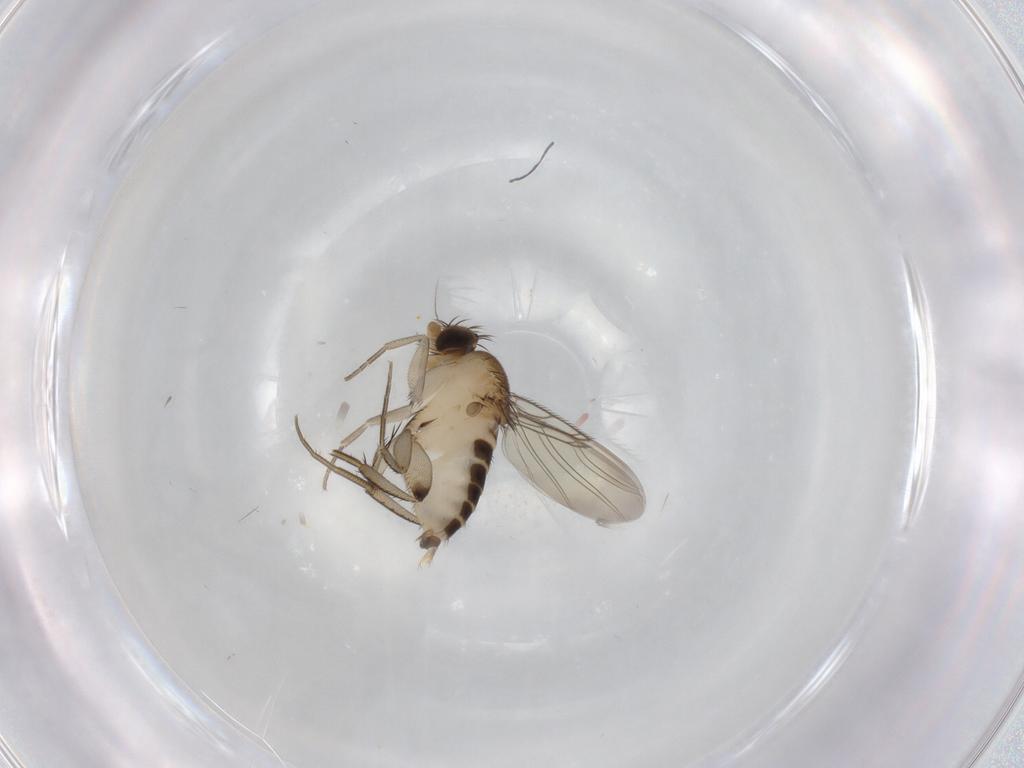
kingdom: Animalia
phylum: Arthropoda
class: Insecta
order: Diptera
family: Phoridae
